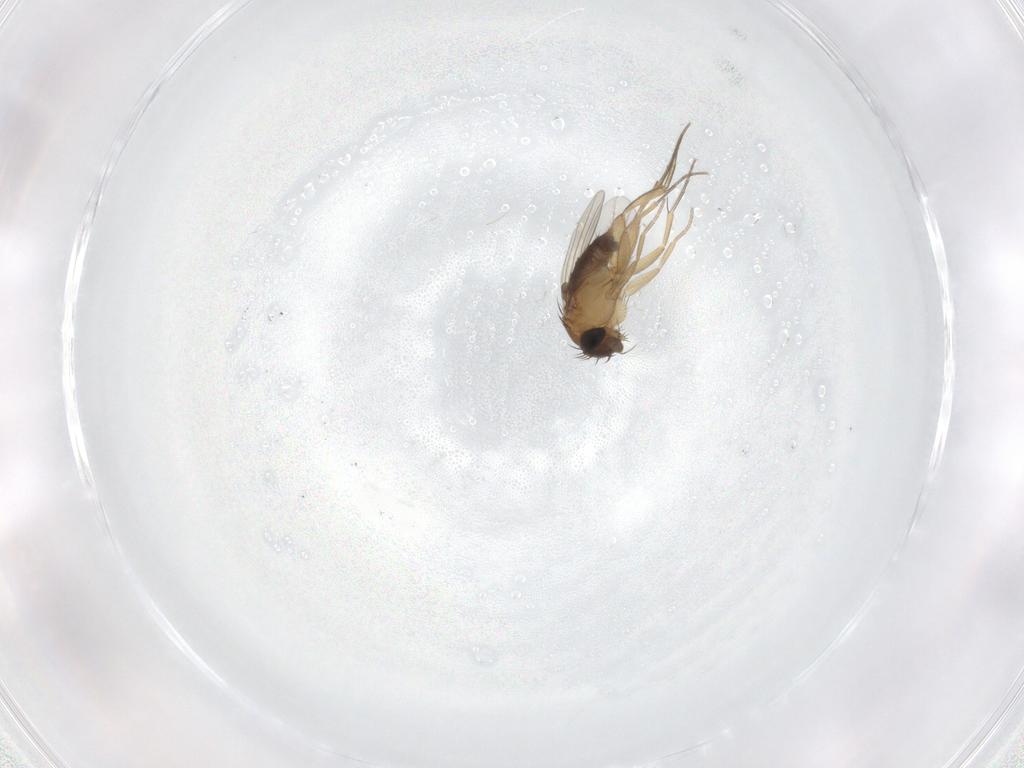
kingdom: Animalia
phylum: Arthropoda
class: Insecta
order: Diptera
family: Ceratopogonidae
